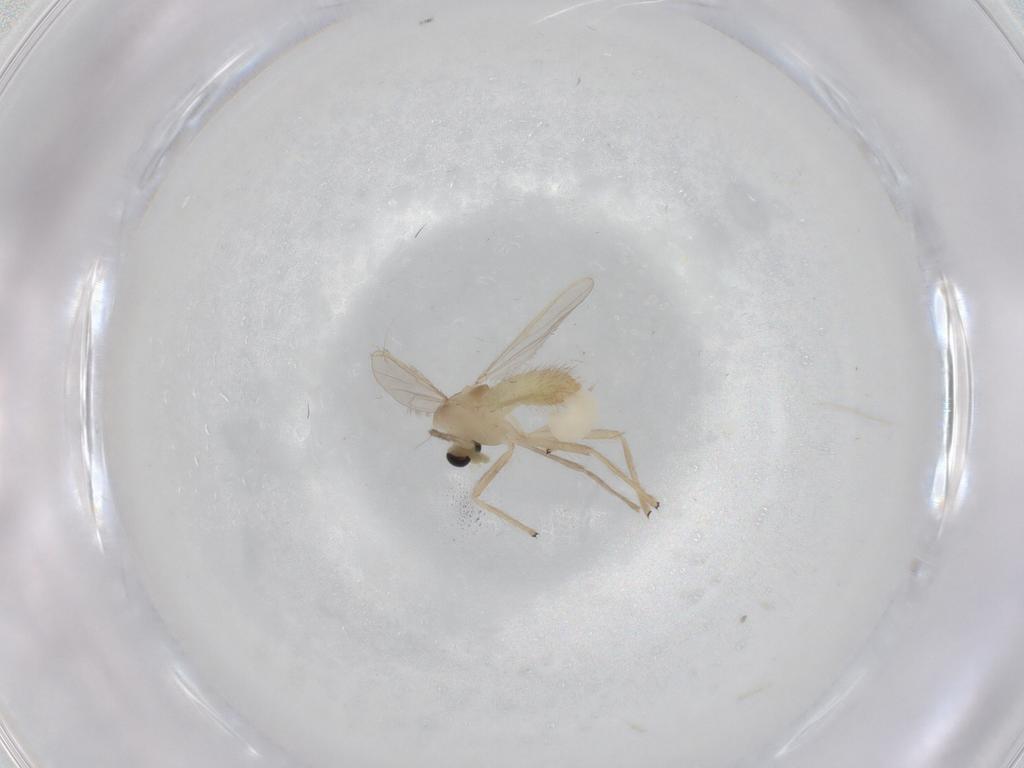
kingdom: Animalia
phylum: Arthropoda
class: Insecta
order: Diptera
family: Chironomidae
